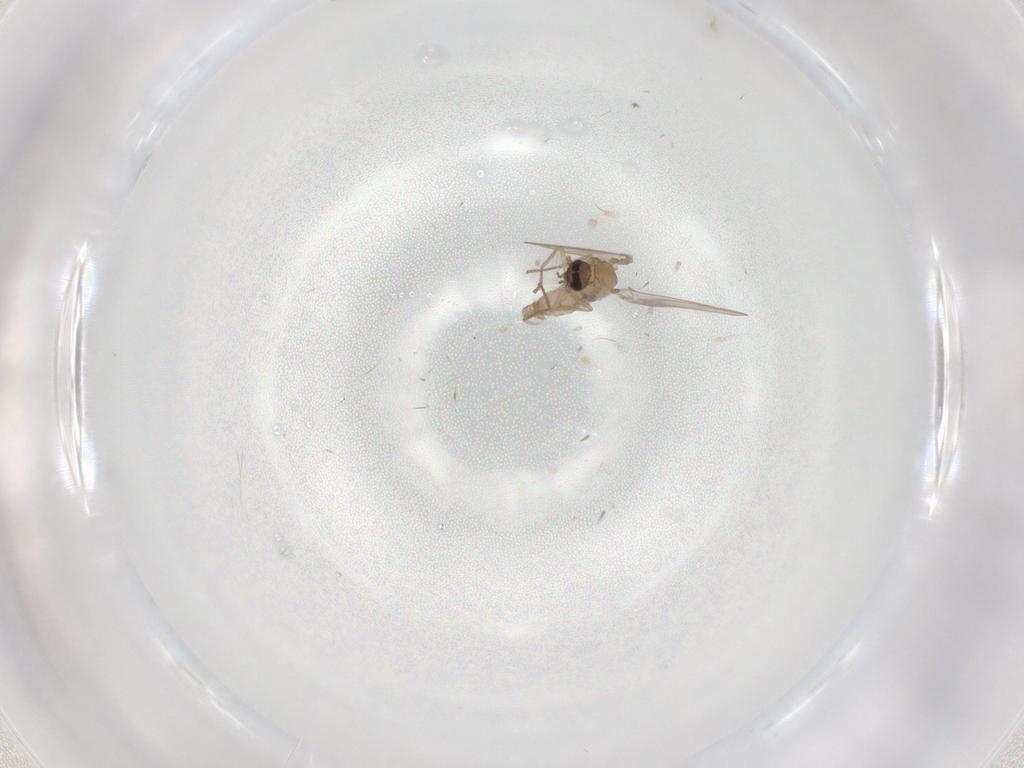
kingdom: Animalia
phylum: Arthropoda
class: Insecta
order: Diptera
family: Psychodidae
